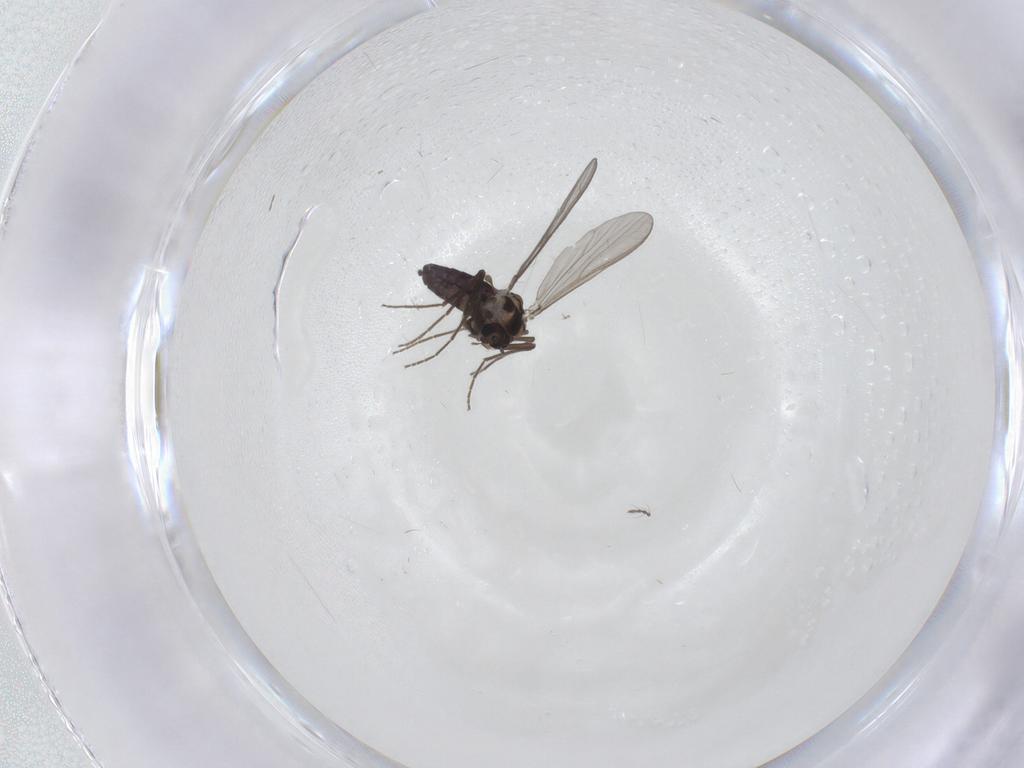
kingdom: Animalia
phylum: Arthropoda
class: Insecta
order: Diptera
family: Chironomidae
